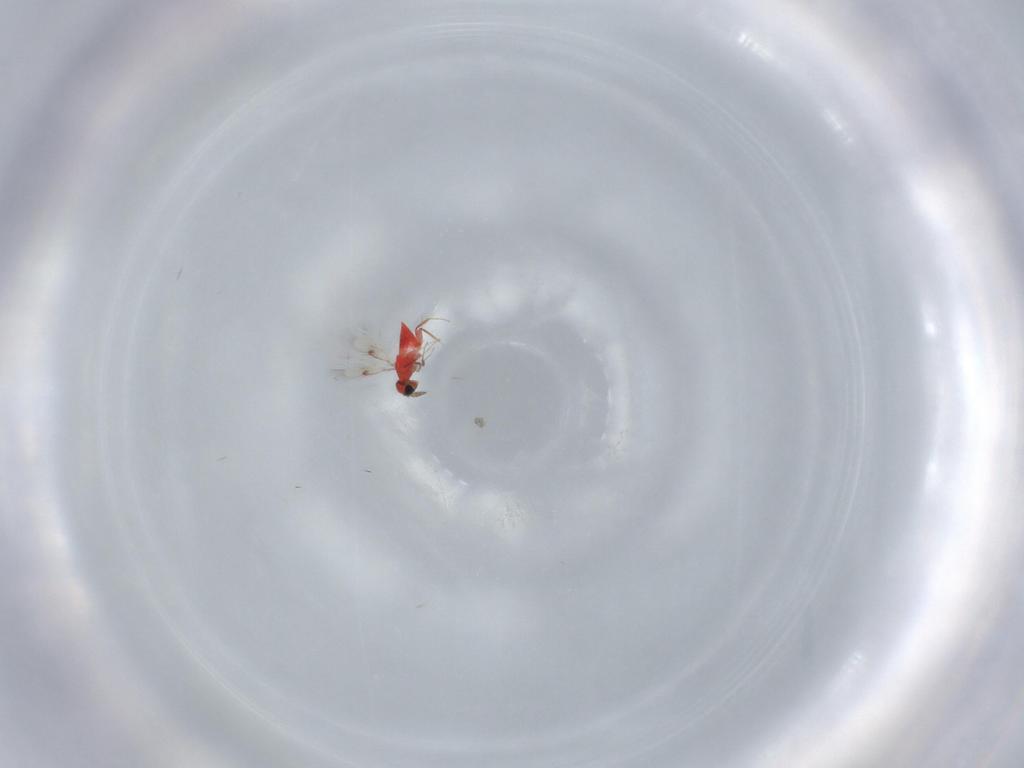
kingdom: Animalia
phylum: Arthropoda
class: Insecta
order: Hymenoptera
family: Trichogrammatidae
